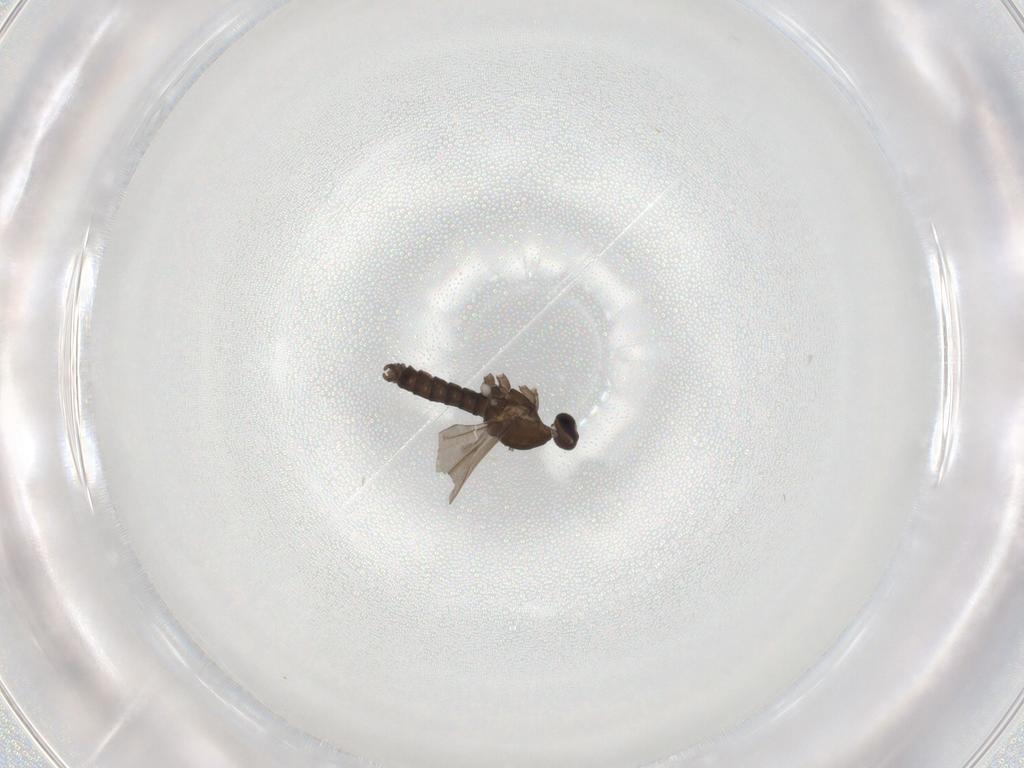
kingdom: Animalia
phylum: Arthropoda
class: Insecta
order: Diptera
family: Cecidomyiidae
